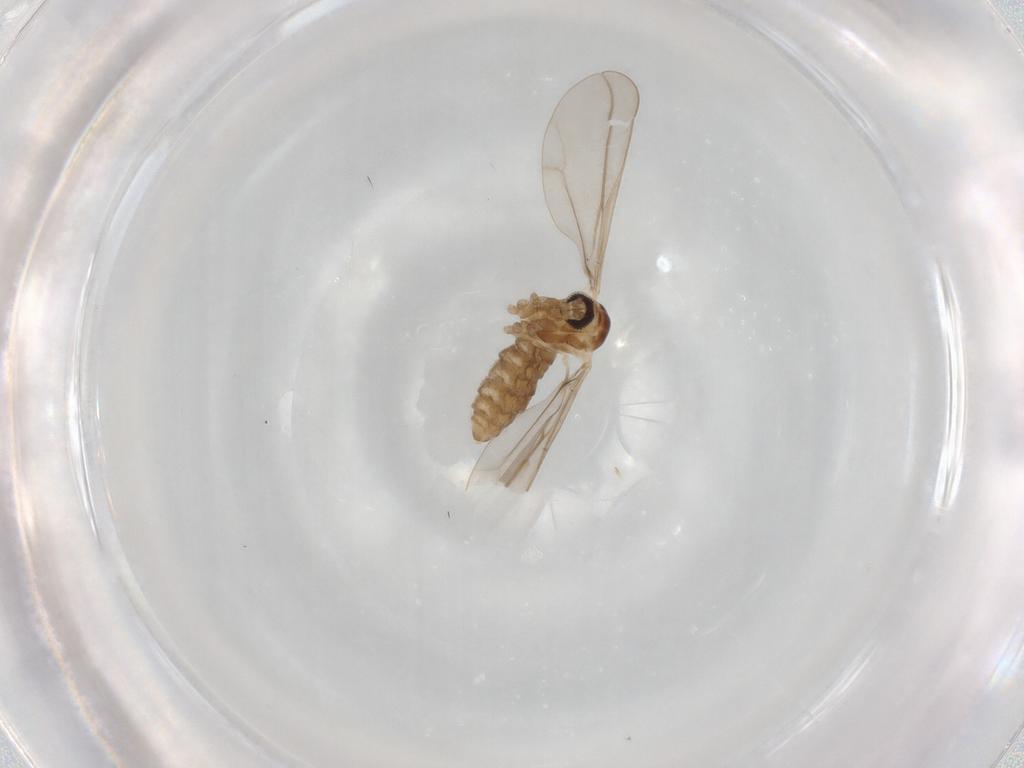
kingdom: Animalia
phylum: Arthropoda
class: Insecta
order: Diptera
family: Cecidomyiidae
